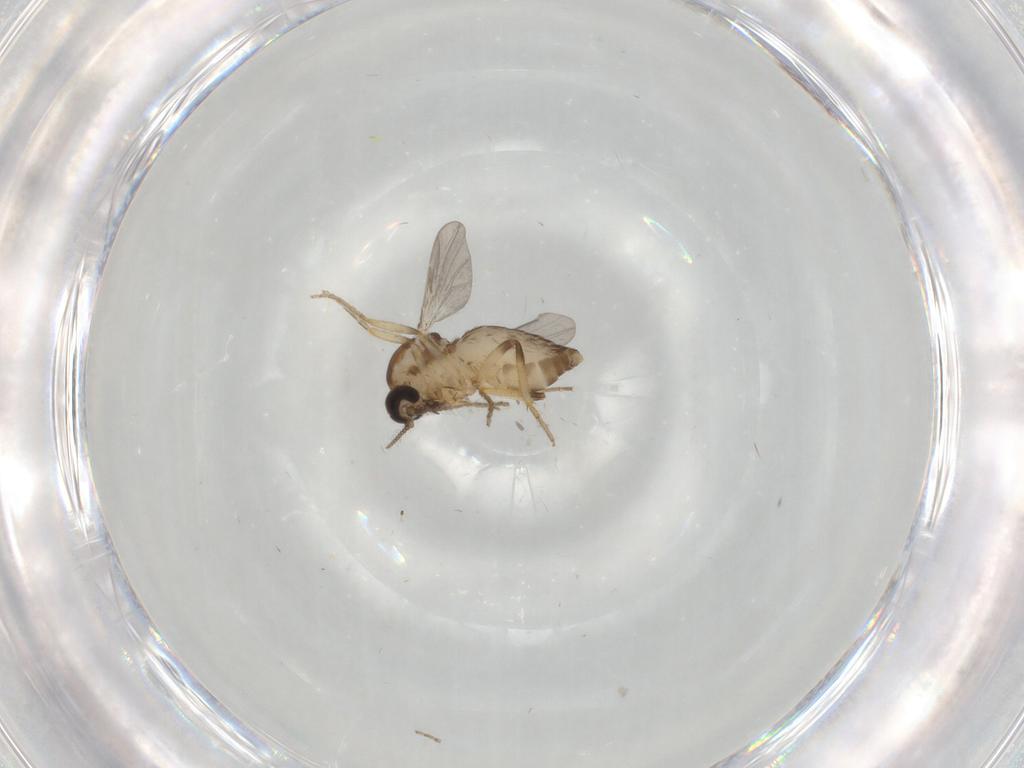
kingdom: Animalia
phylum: Arthropoda
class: Insecta
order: Diptera
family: Ceratopogonidae
